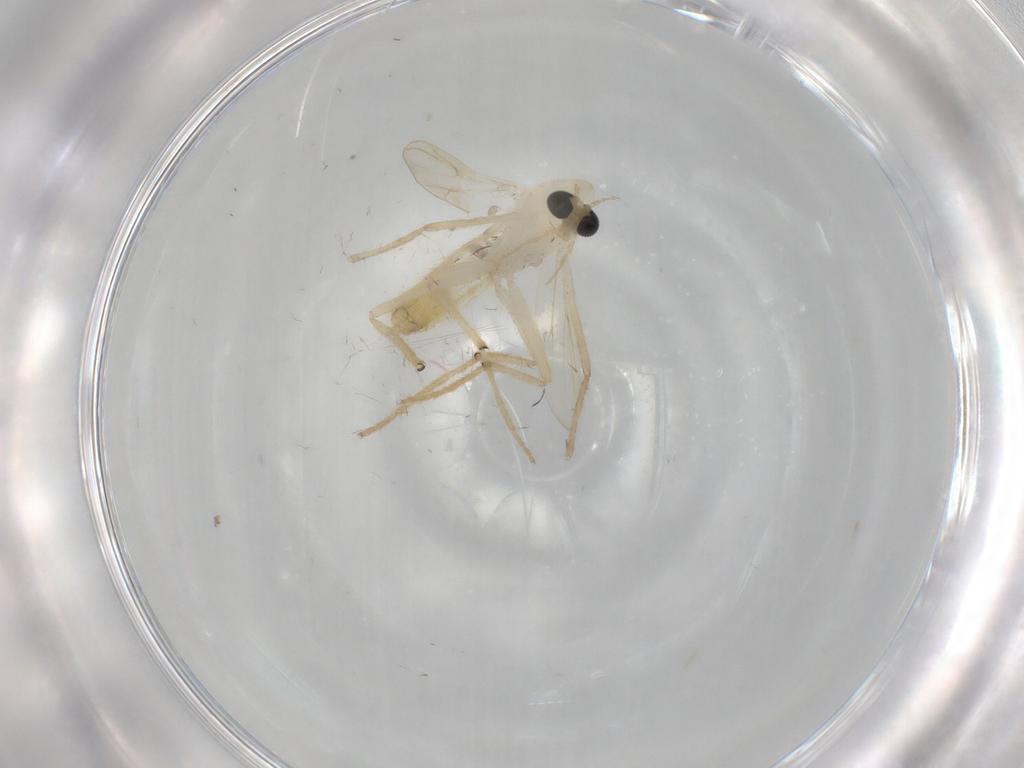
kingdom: Animalia
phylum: Arthropoda
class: Insecta
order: Diptera
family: Chironomidae
